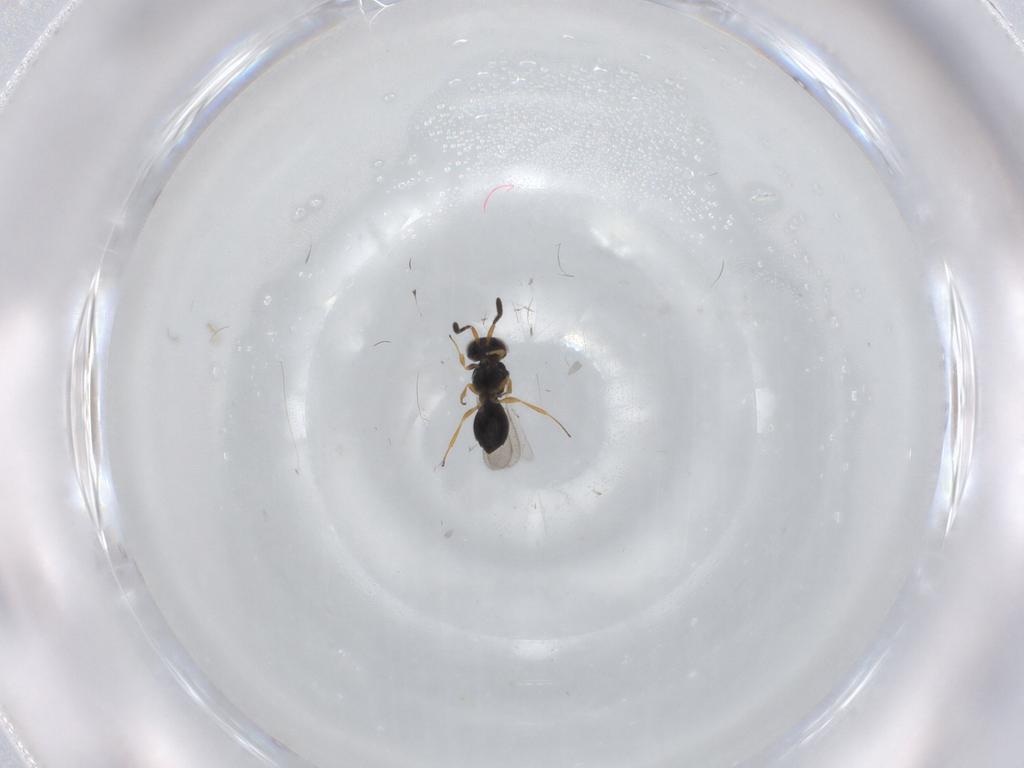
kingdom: Animalia
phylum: Arthropoda
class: Insecta
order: Hymenoptera
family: Scelionidae
